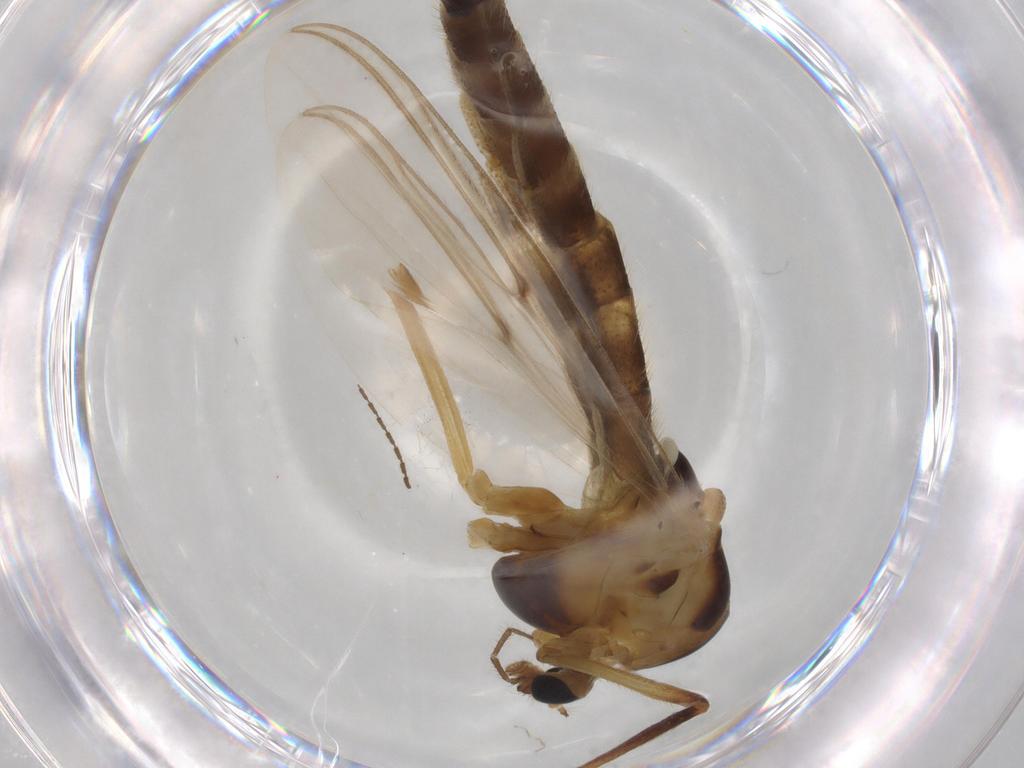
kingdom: Animalia
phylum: Arthropoda
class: Insecta
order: Diptera
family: Chironomidae
